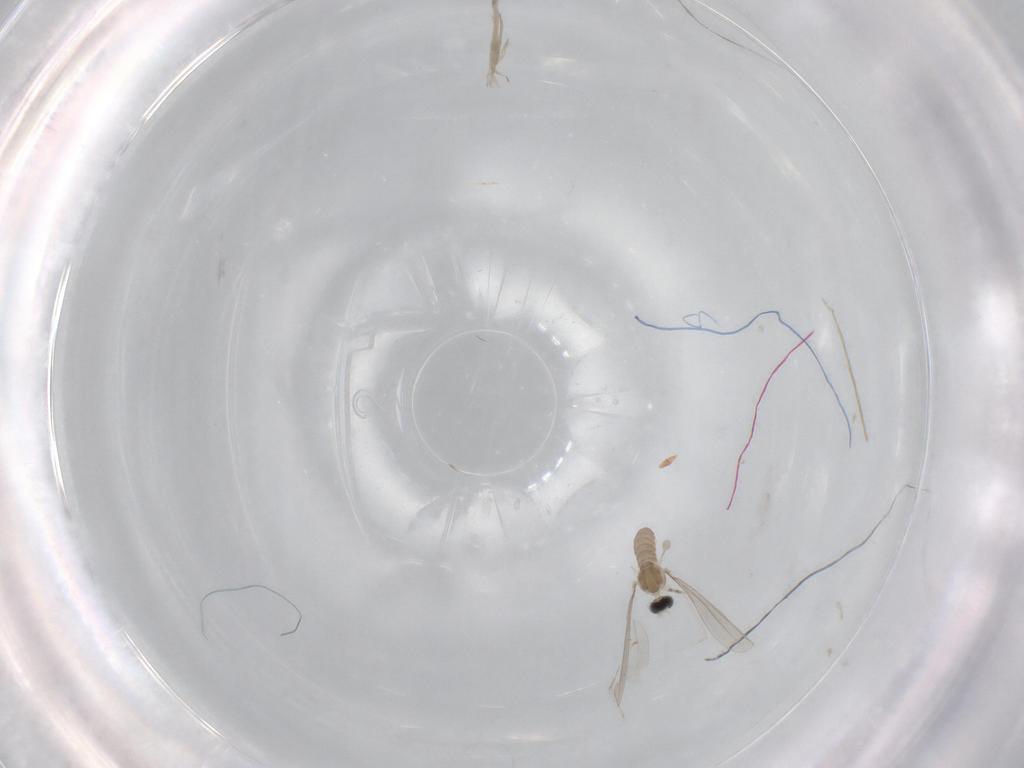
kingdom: Animalia
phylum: Arthropoda
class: Insecta
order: Diptera
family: Cecidomyiidae
